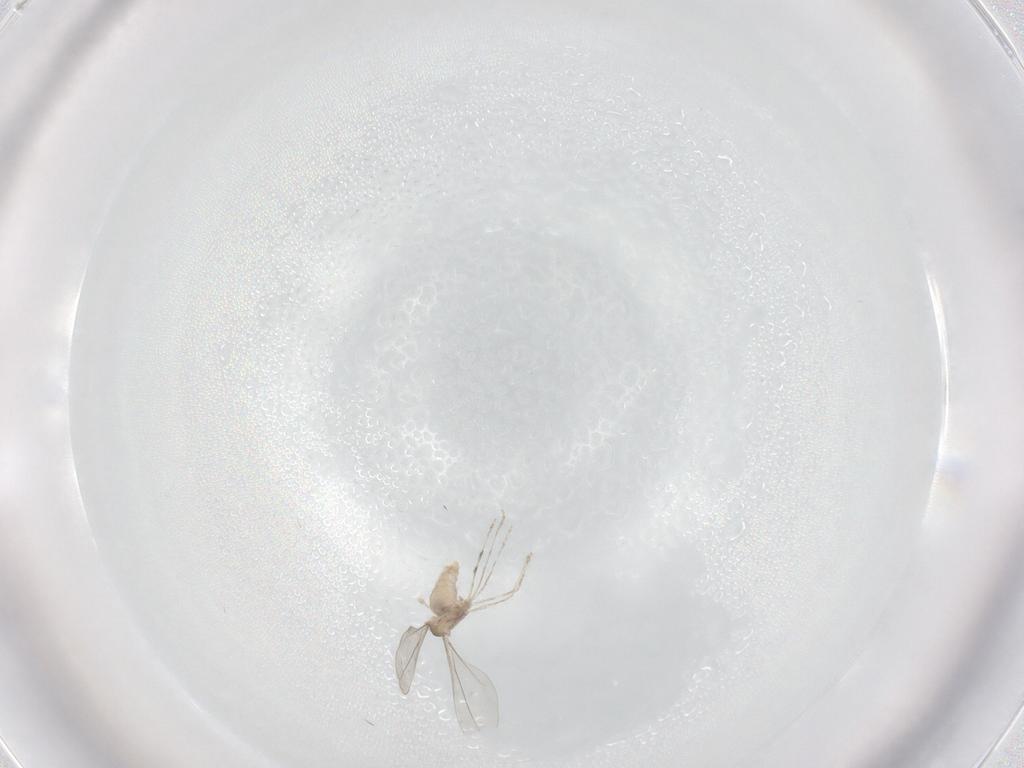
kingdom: Animalia
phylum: Arthropoda
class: Insecta
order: Diptera
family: Cecidomyiidae
